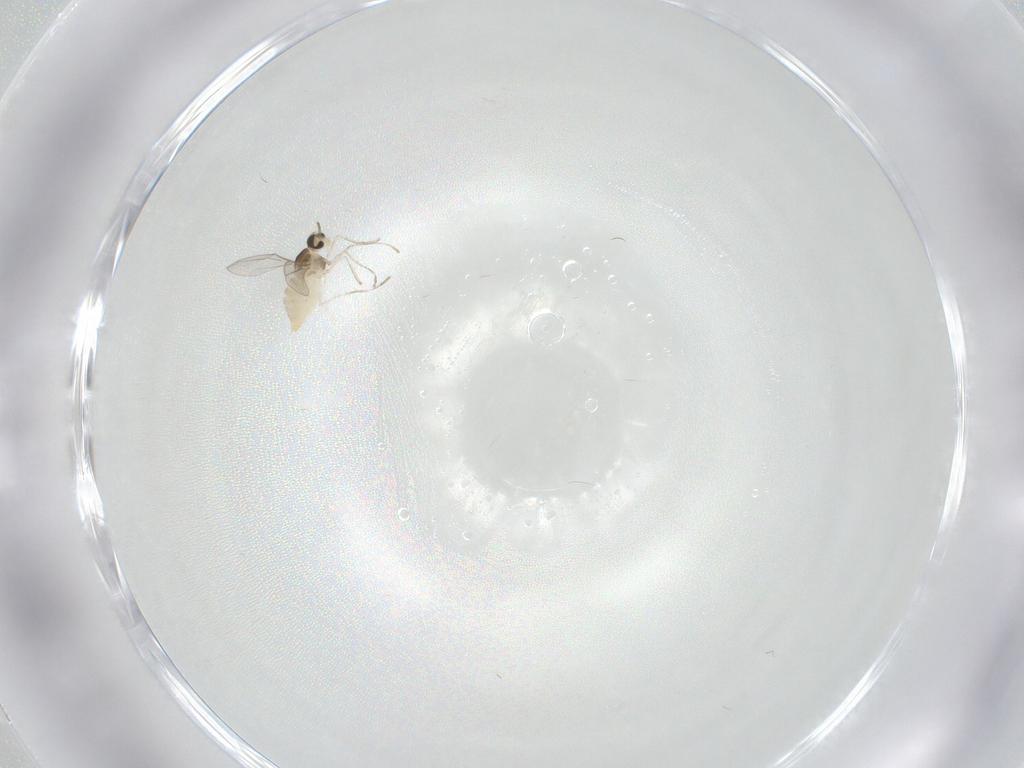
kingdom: Animalia
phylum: Arthropoda
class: Insecta
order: Diptera
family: Cecidomyiidae
